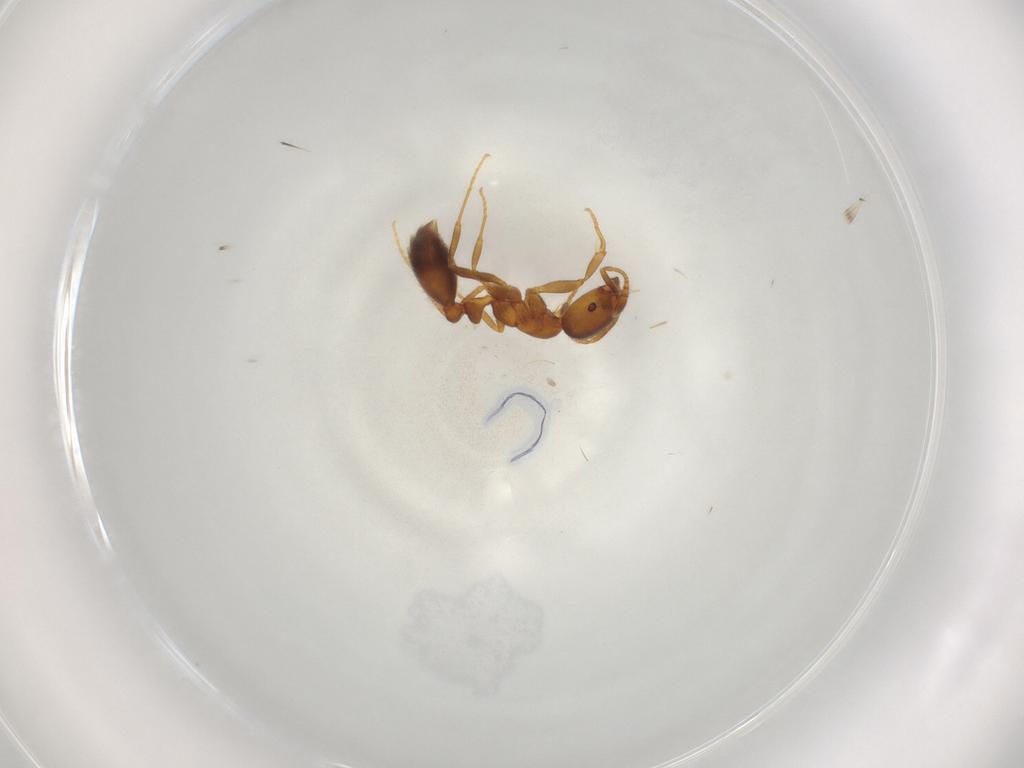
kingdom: Animalia
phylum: Arthropoda
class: Insecta
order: Hymenoptera
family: Formicidae
